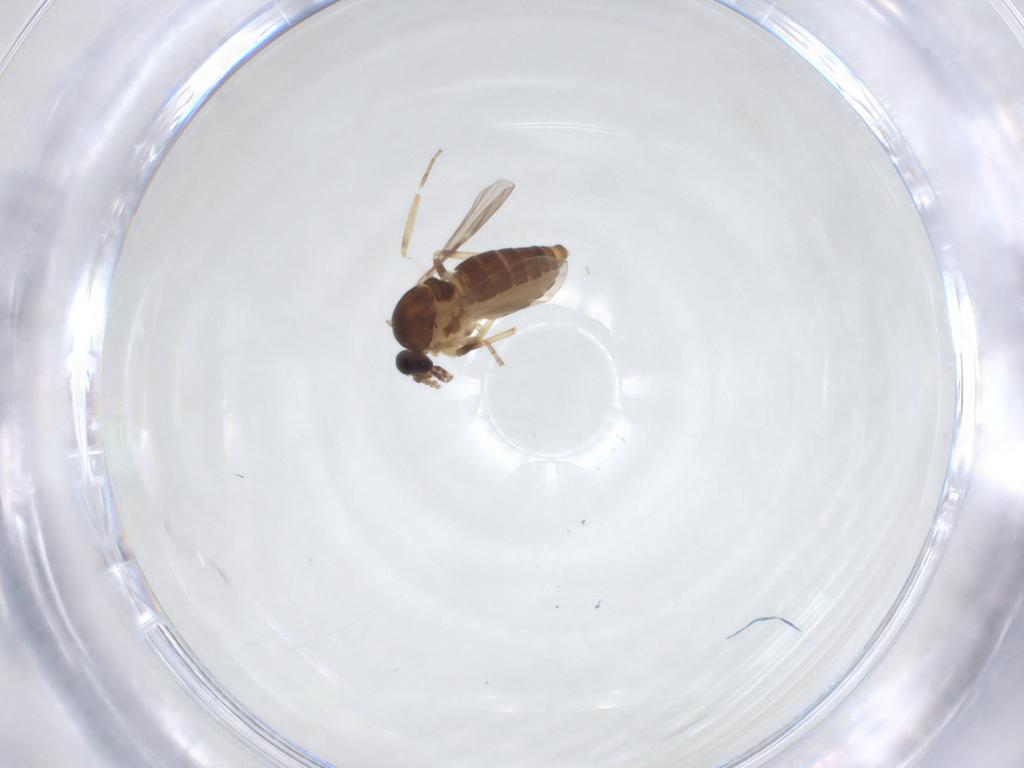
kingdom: Animalia
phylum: Arthropoda
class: Insecta
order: Diptera
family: Ceratopogonidae
